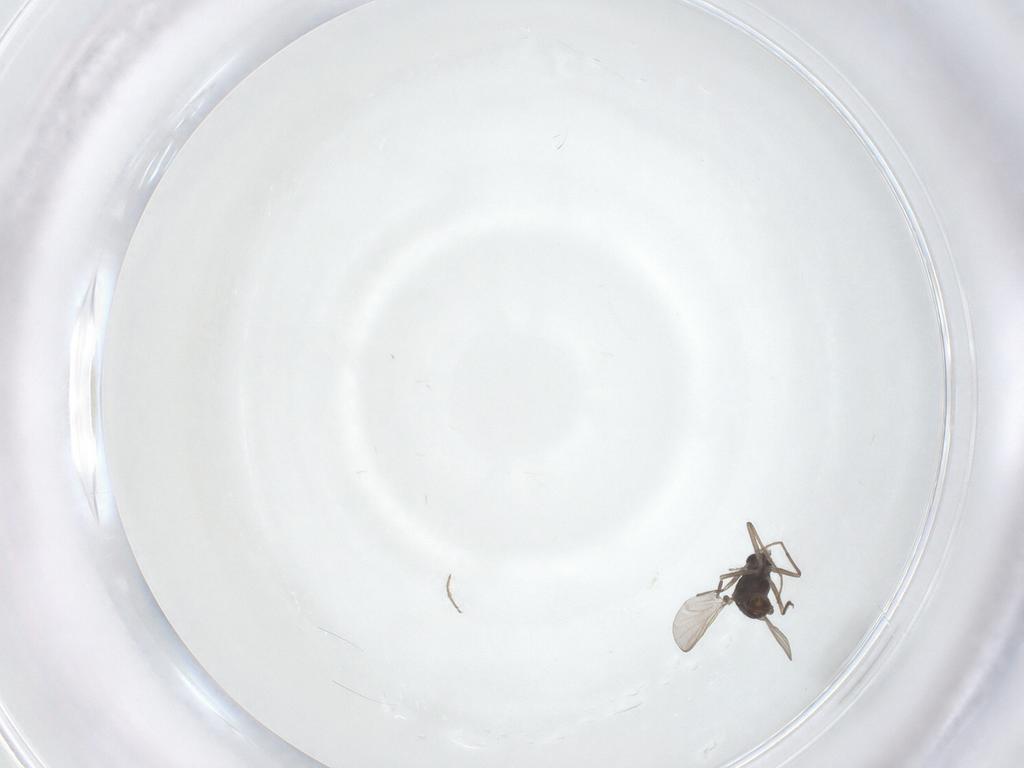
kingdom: Animalia
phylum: Arthropoda
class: Insecta
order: Diptera
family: Chironomidae
